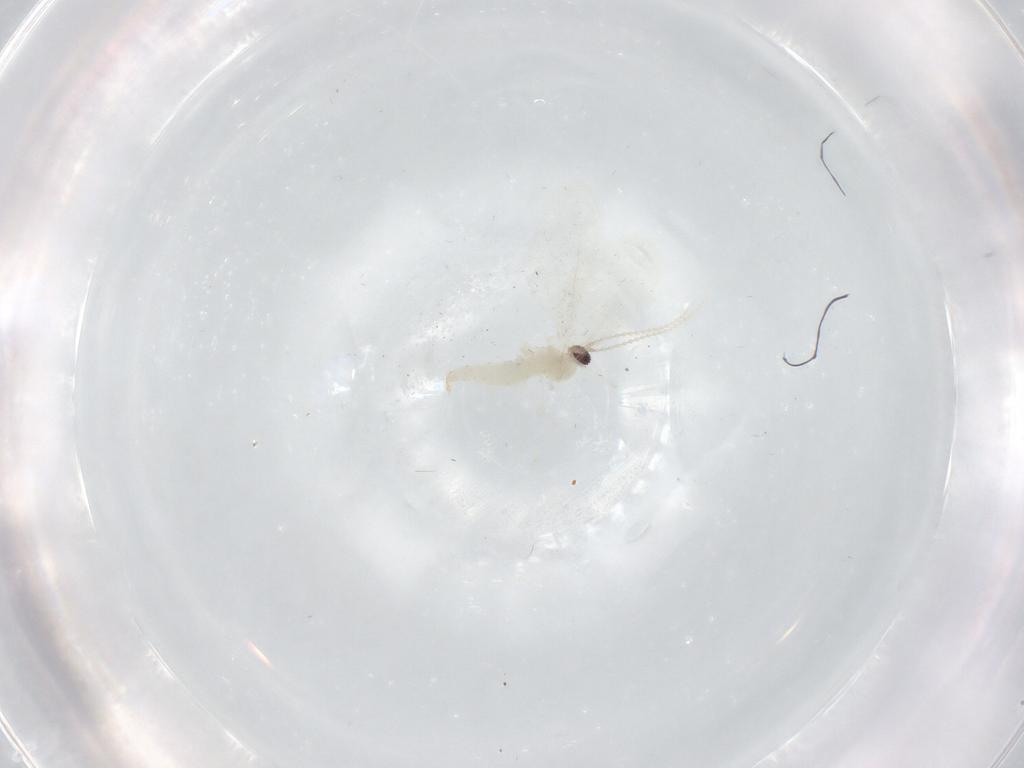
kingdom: Animalia
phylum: Arthropoda
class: Insecta
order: Diptera
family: Cecidomyiidae
